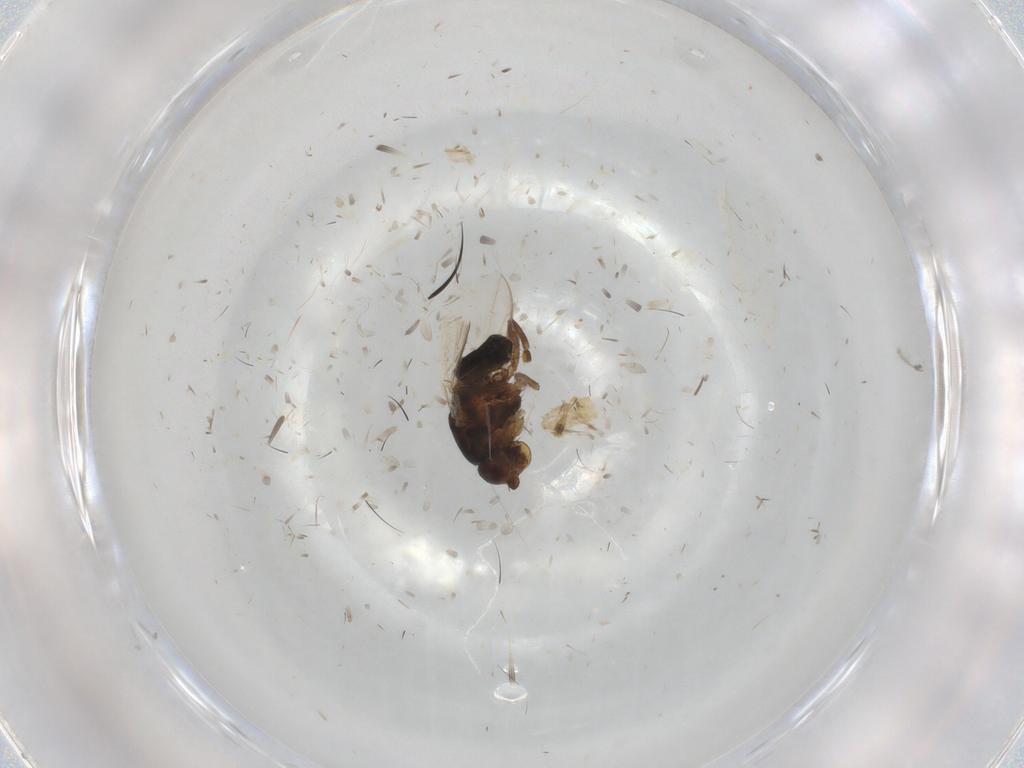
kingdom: Animalia
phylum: Arthropoda
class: Insecta
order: Diptera
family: Sphaeroceridae
